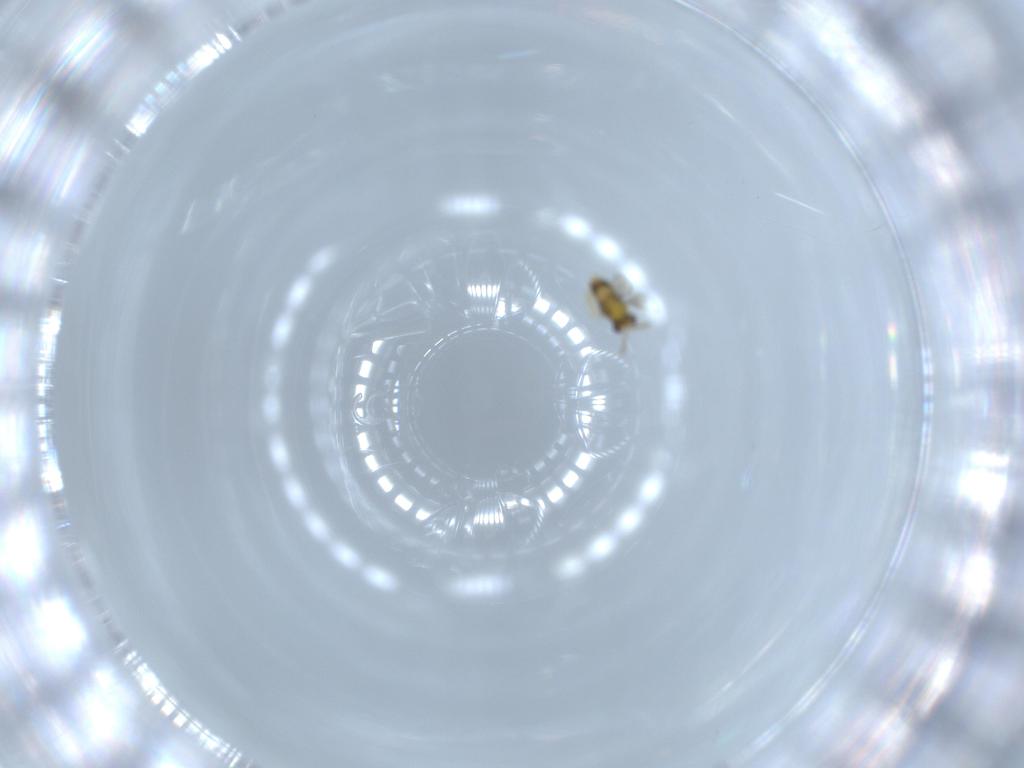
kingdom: Animalia
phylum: Arthropoda
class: Insecta
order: Hymenoptera
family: Aphelinidae
